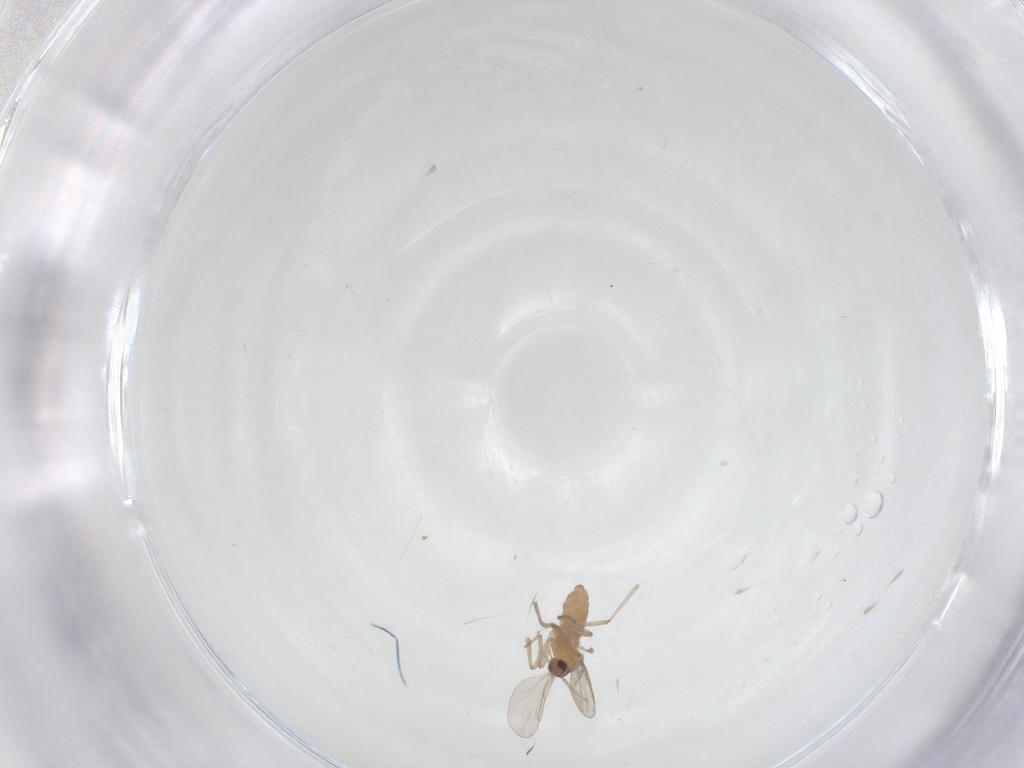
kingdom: Animalia
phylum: Arthropoda
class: Insecta
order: Diptera
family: Cecidomyiidae
